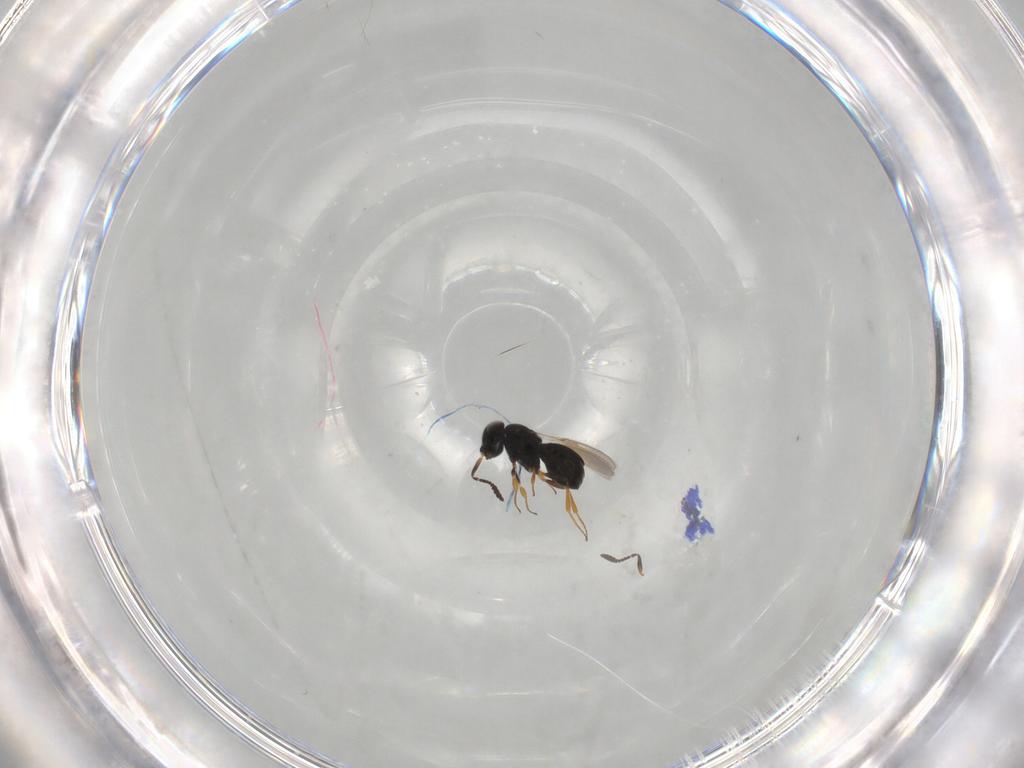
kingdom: Animalia
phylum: Arthropoda
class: Insecta
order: Hymenoptera
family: Scelionidae
